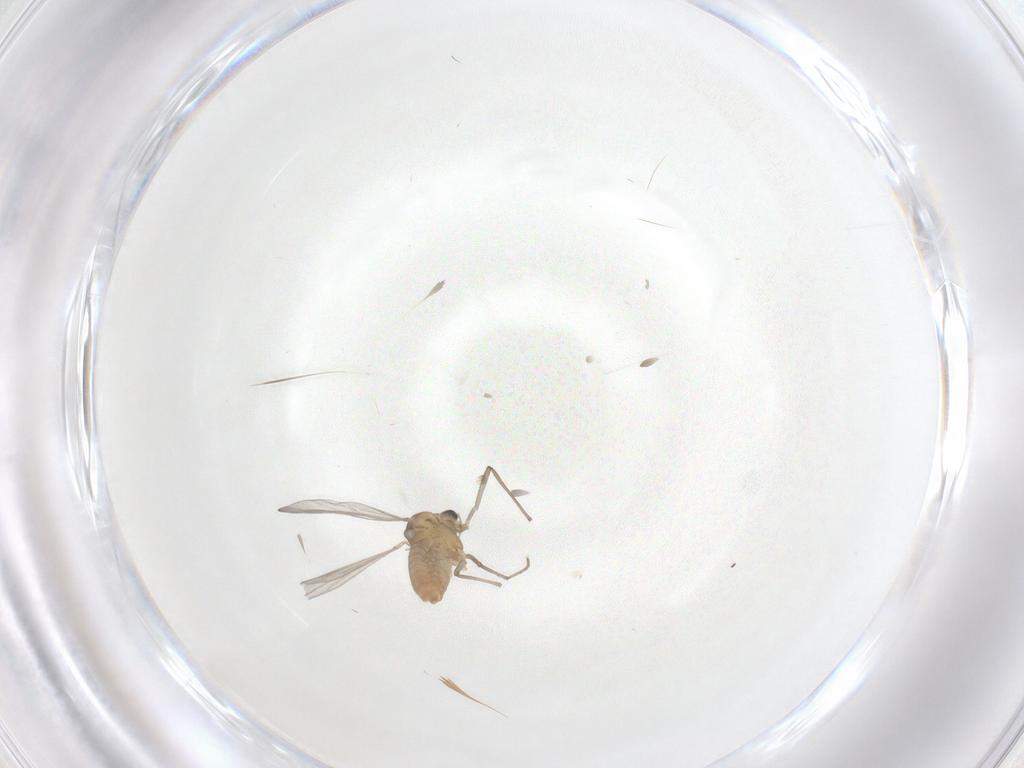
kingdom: Animalia
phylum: Arthropoda
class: Insecta
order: Diptera
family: Chironomidae
